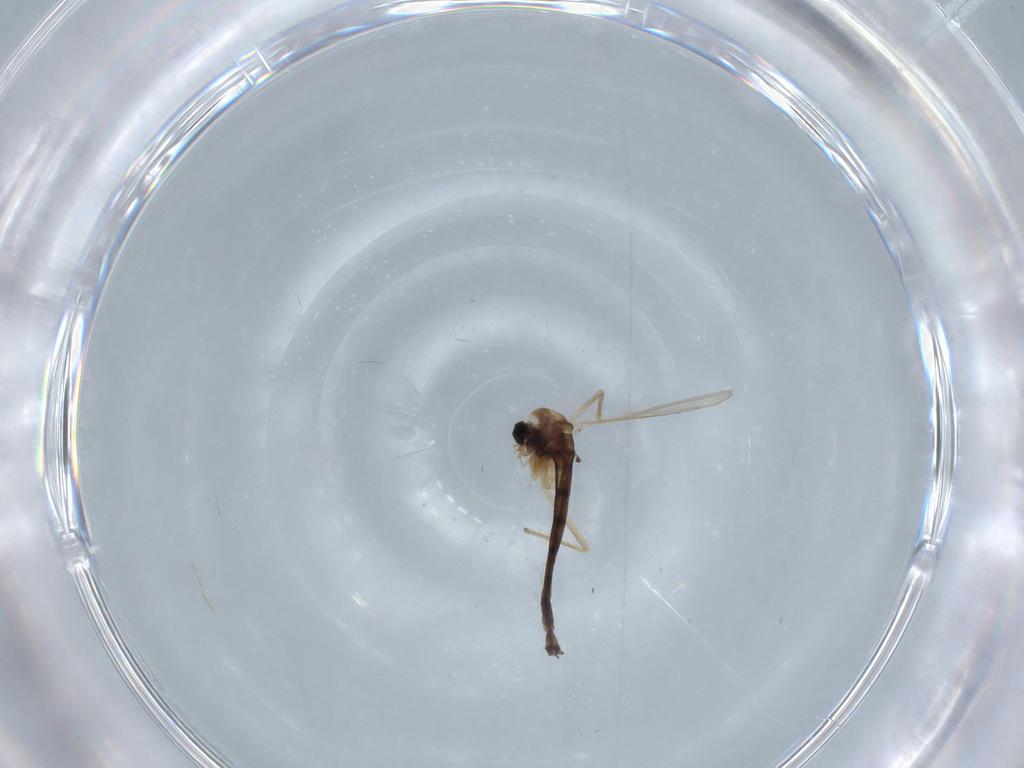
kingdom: Animalia
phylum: Arthropoda
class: Insecta
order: Diptera
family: Chironomidae
